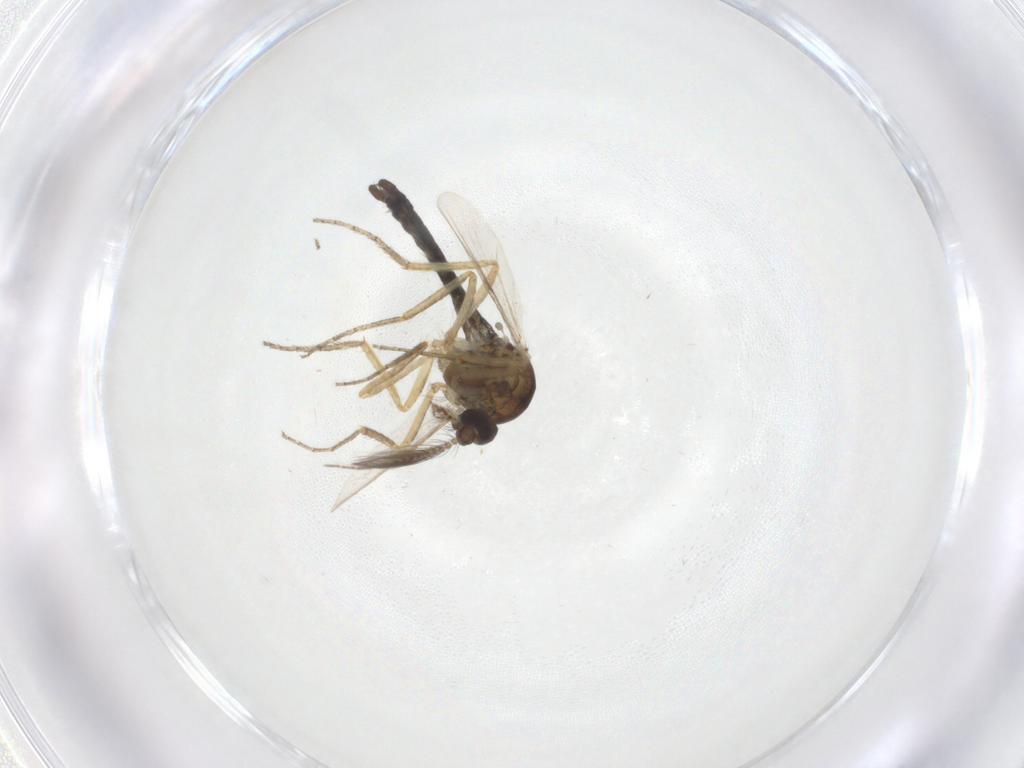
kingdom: Animalia
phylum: Arthropoda
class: Insecta
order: Diptera
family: Ceratopogonidae
